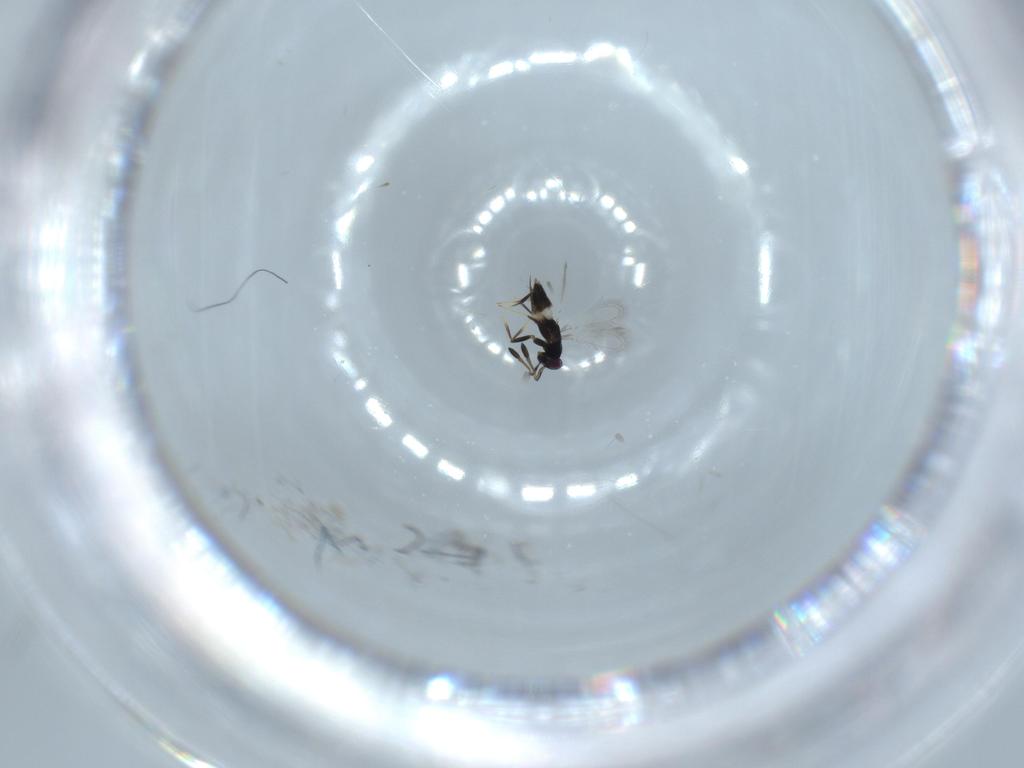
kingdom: Animalia
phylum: Arthropoda
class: Insecta
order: Hymenoptera
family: Mymaridae
